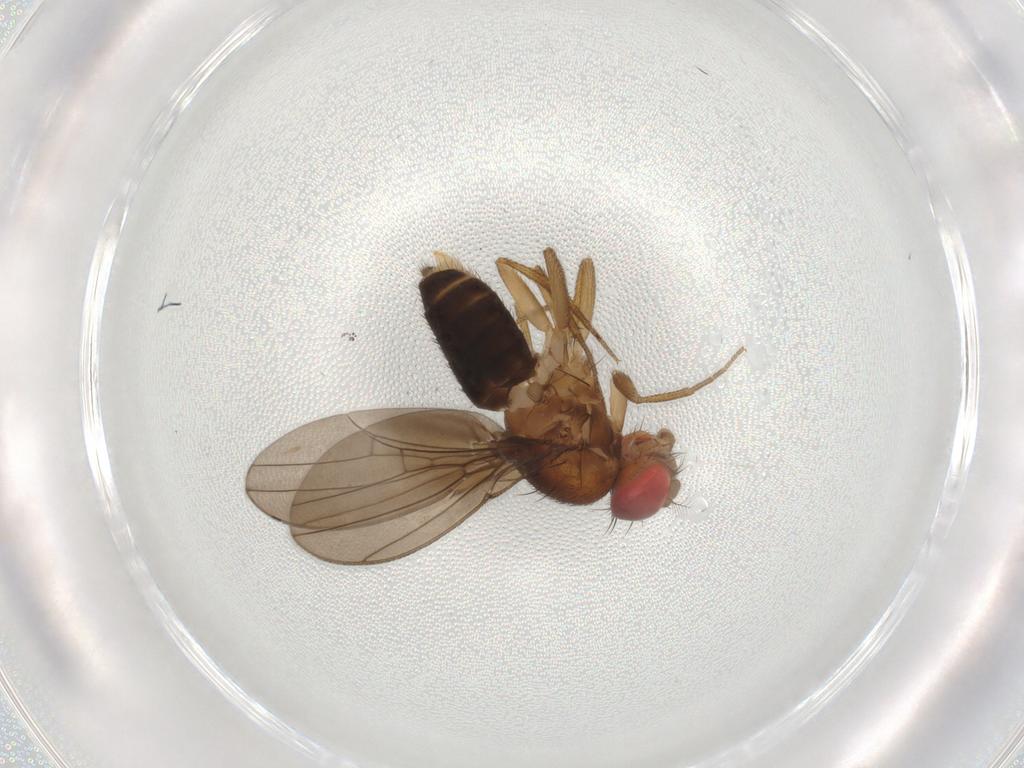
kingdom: Animalia
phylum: Arthropoda
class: Insecta
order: Diptera
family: Drosophilidae
